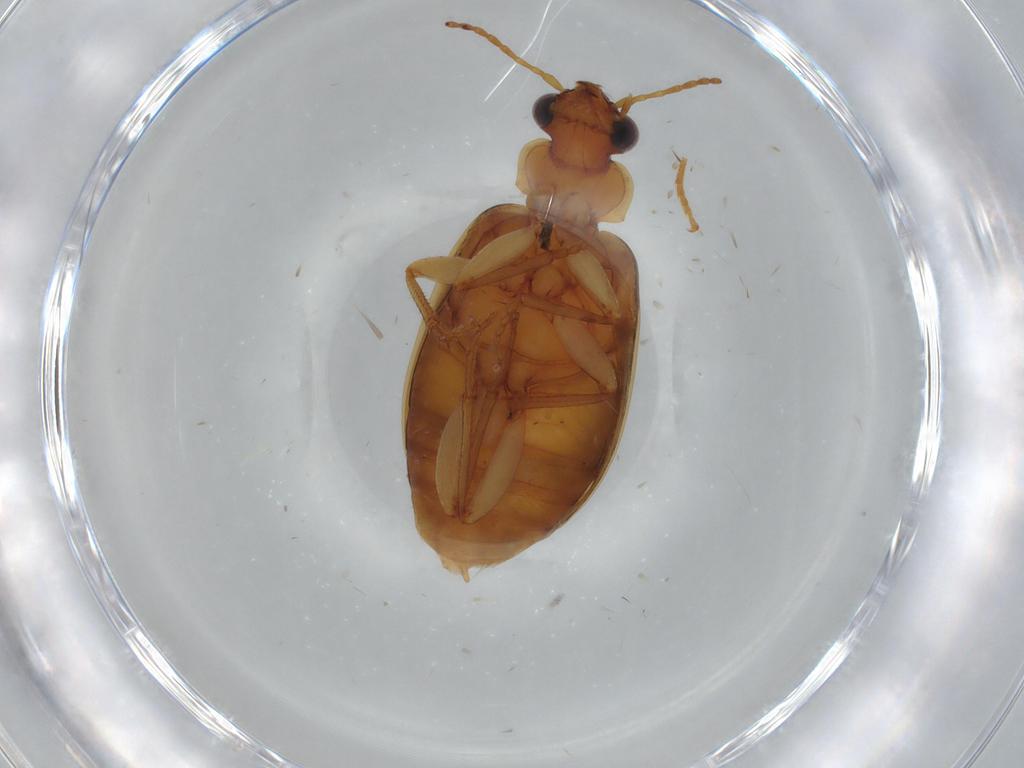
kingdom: Animalia
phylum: Arthropoda
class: Insecta
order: Coleoptera
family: Carabidae
